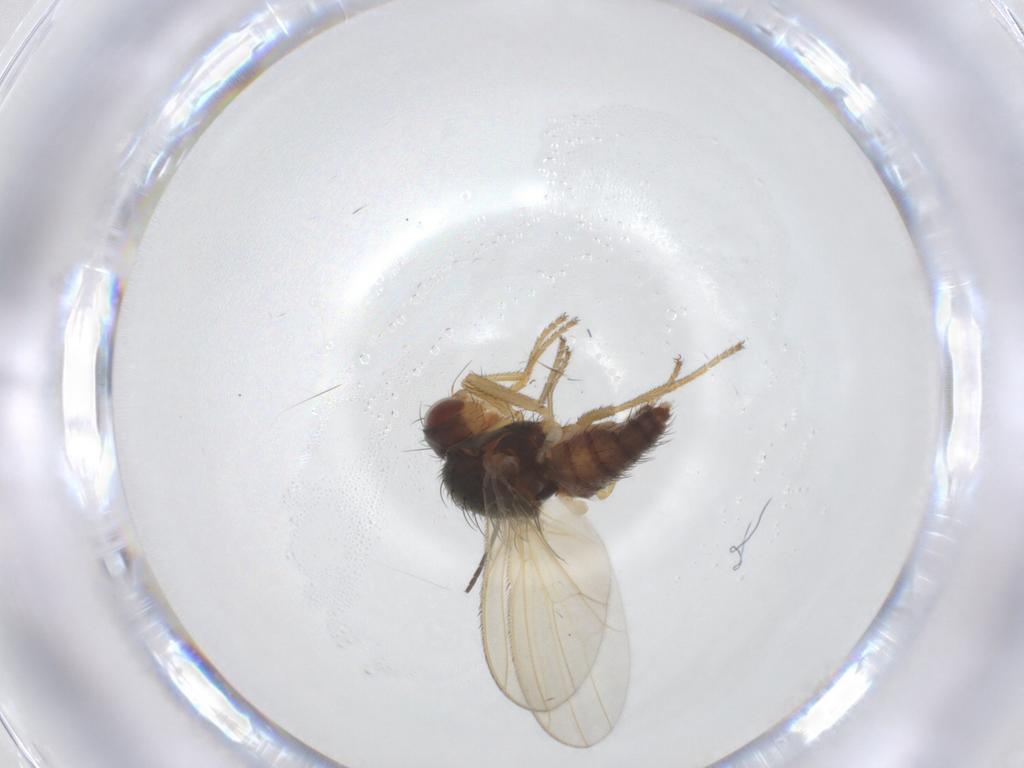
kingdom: Animalia
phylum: Arthropoda
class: Insecta
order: Diptera
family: Heleomyzidae
